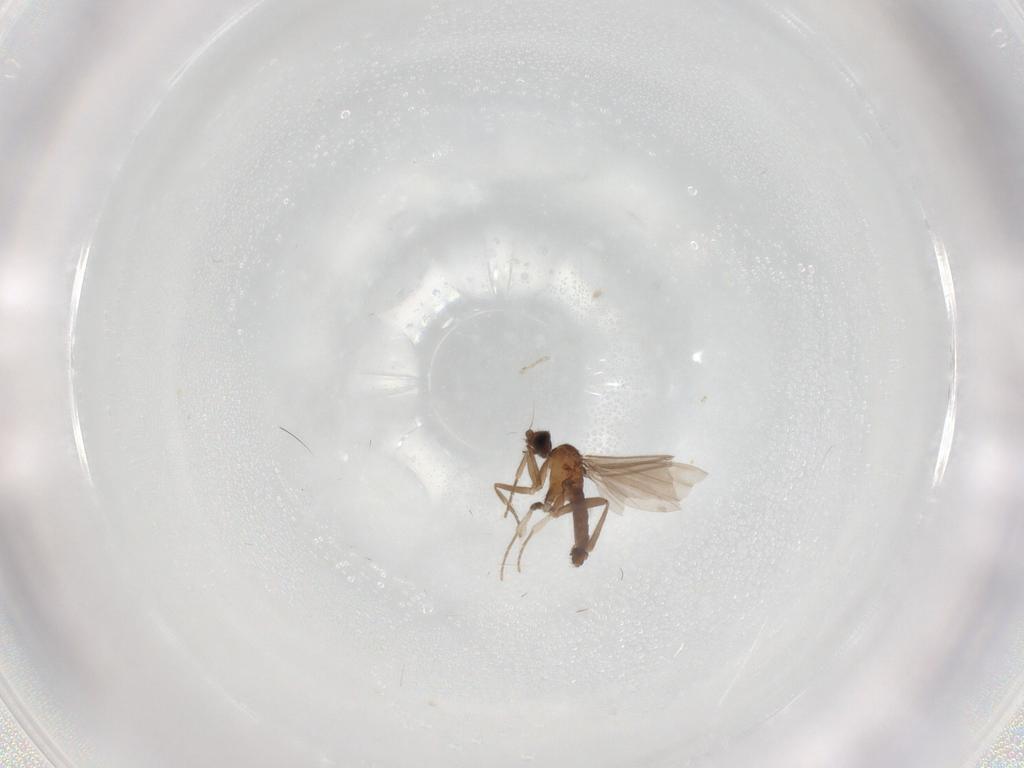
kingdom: Animalia
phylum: Arthropoda
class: Insecta
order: Diptera
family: Phoridae
